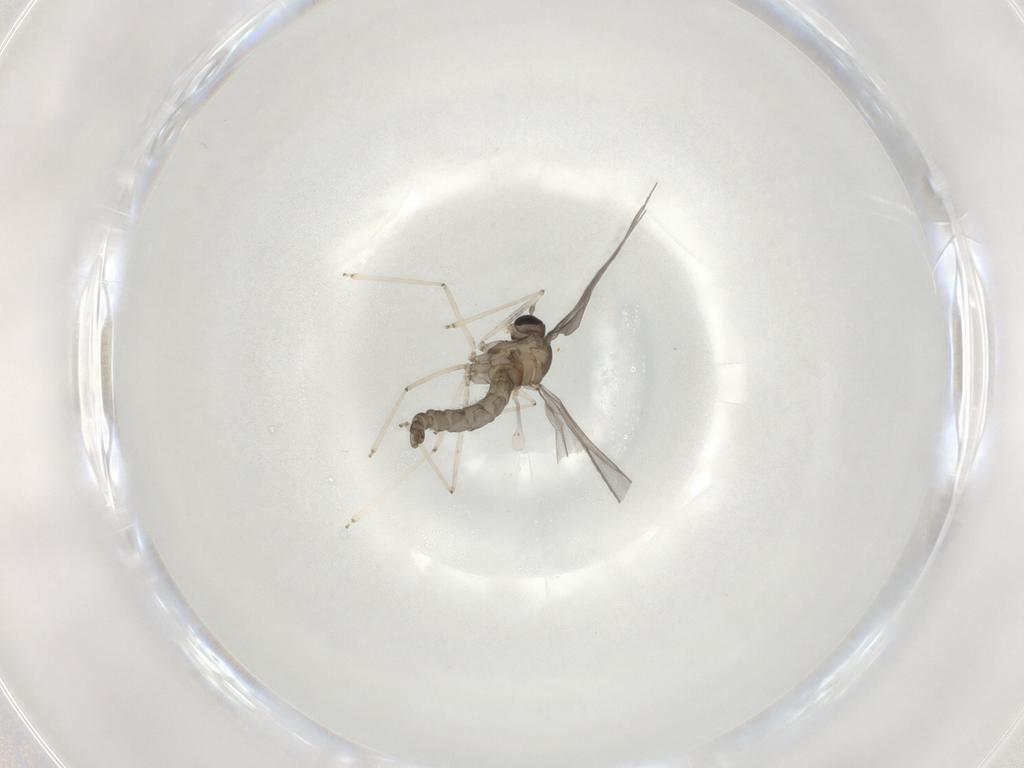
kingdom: Animalia
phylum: Arthropoda
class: Insecta
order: Diptera
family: Cecidomyiidae
